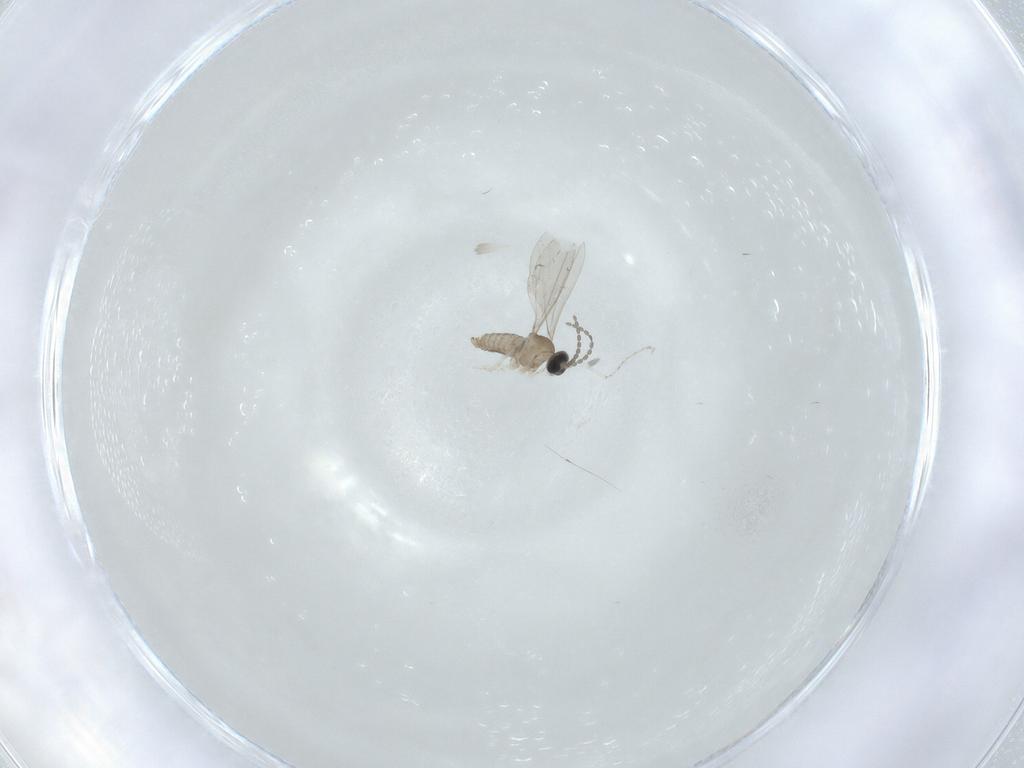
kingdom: Animalia
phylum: Arthropoda
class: Insecta
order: Diptera
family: Cecidomyiidae
